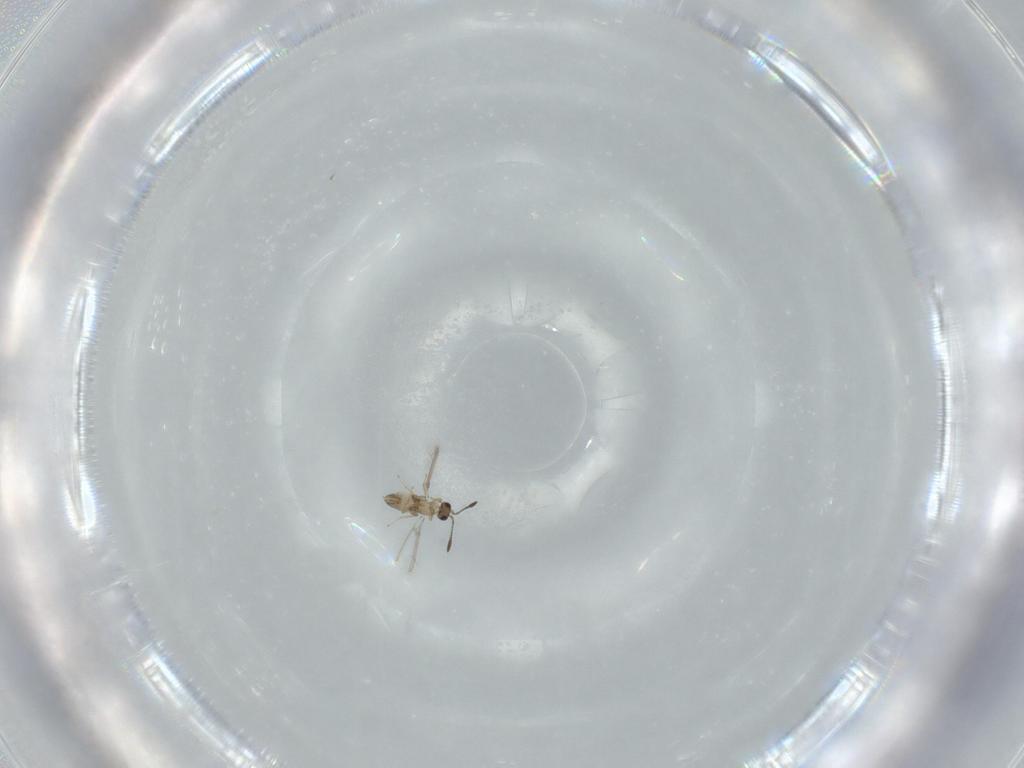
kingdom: Animalia
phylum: Arthropoda
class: Insecta
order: Hymenoptera
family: Mymaridae
